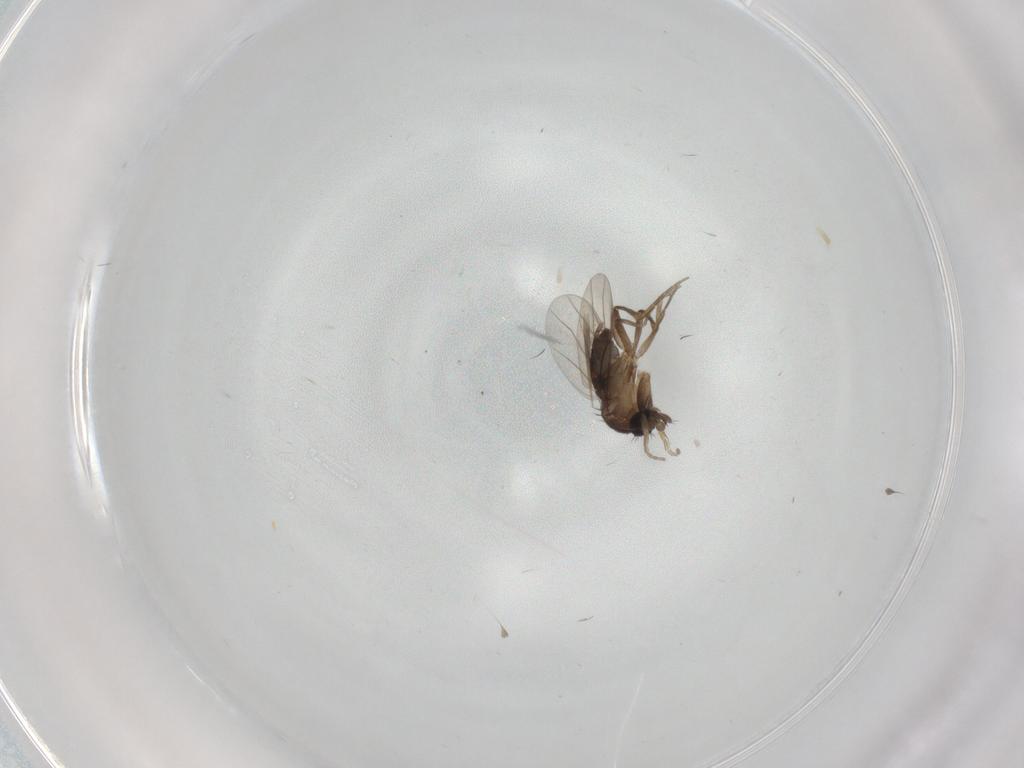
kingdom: Animalia
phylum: Arthropoda
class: Insecta
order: Diptera
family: Phoridae
